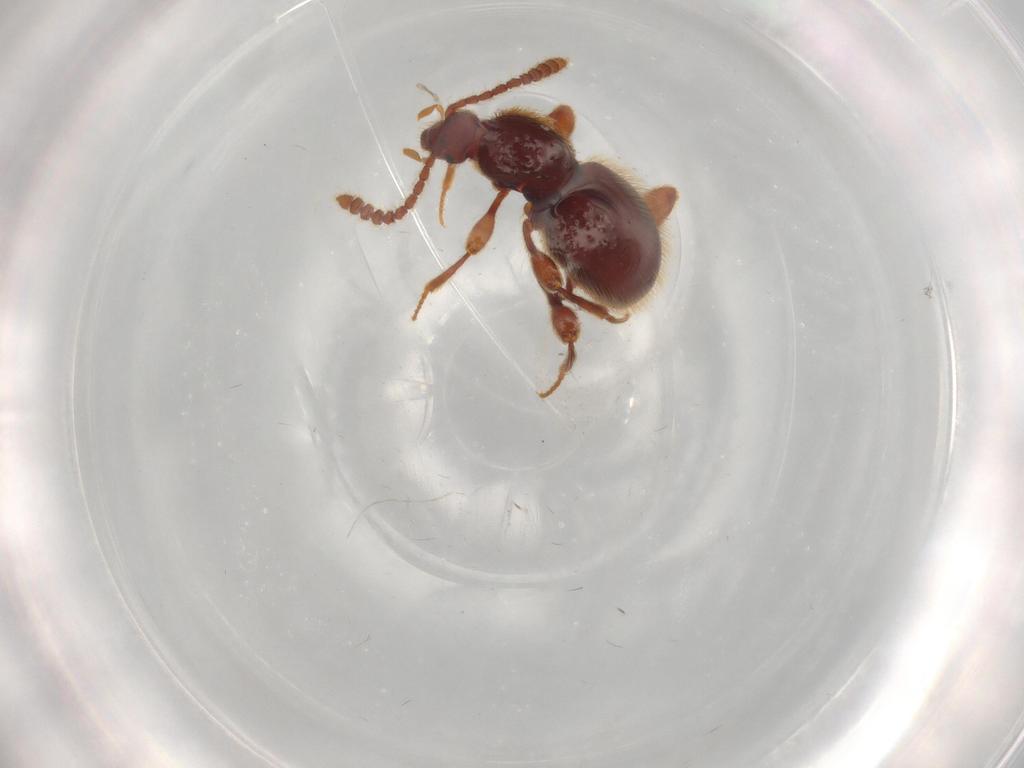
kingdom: Animalia
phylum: Arthropoda
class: Insecta
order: Coleoptera
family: Staphylinidae
